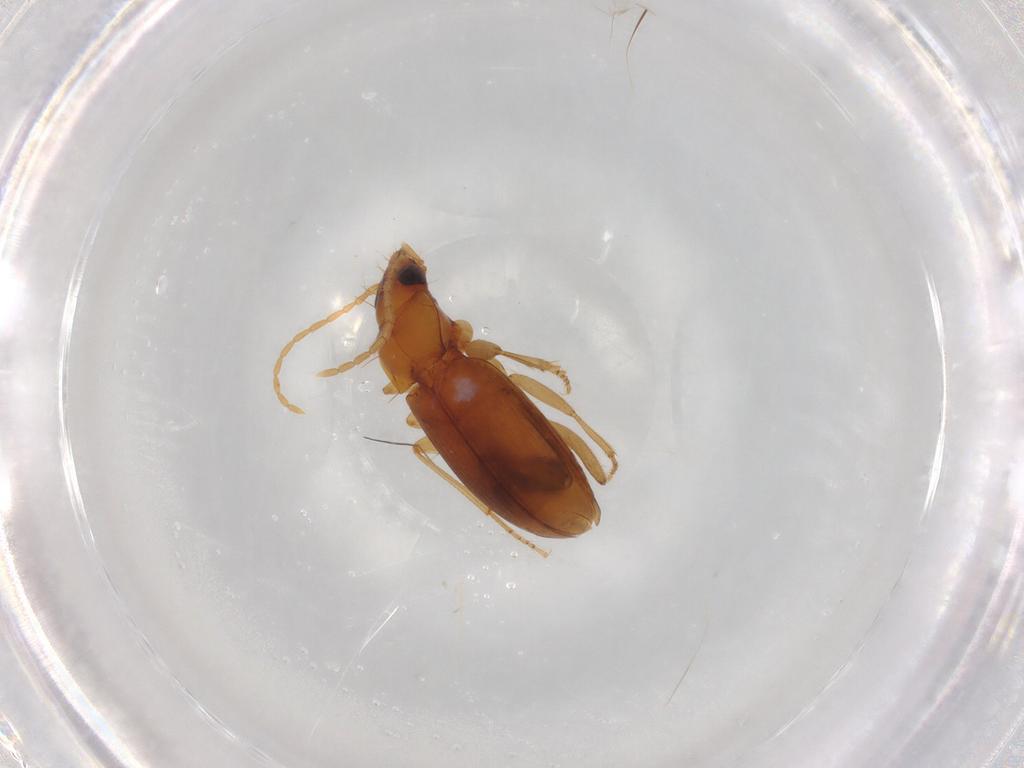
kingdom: Animalia
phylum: Arthropoda
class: Insecta
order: Coleoptera
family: Carabidae
